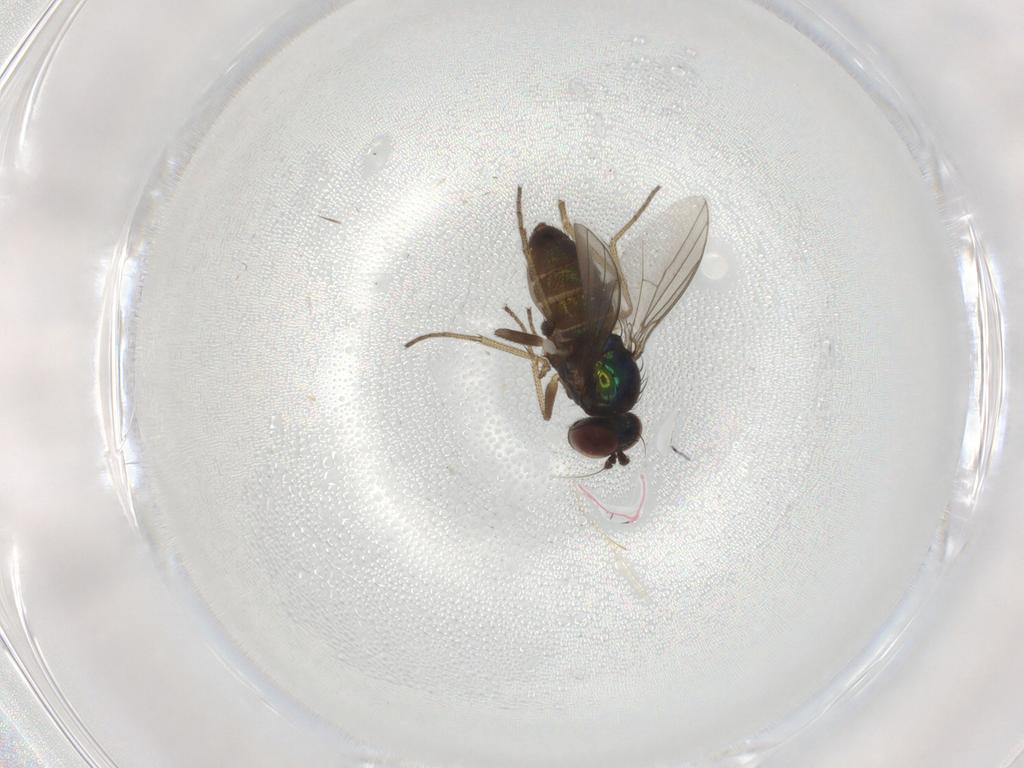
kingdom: Animalia
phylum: Arthropoda
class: Insecta
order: Diptera
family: Dolichopodidae
